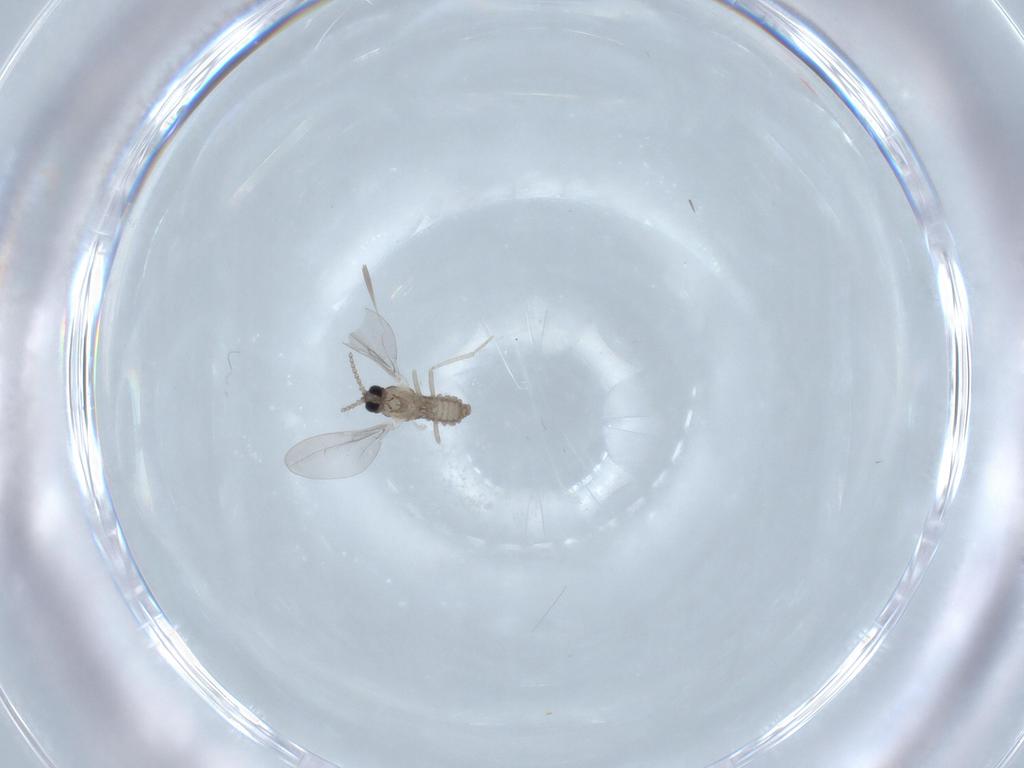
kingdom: Animalia
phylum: Arthropoda
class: Insecta
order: Diptera
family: Cecidomyiidae
